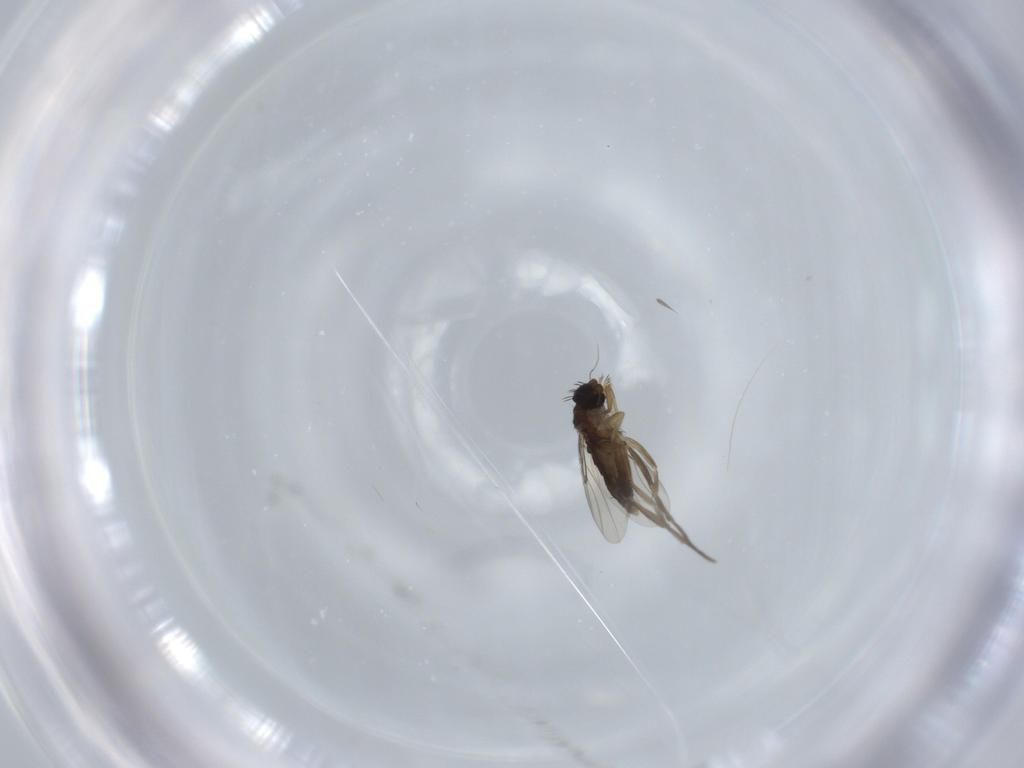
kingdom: Animalia
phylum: Arthropoda
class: Insecta
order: Diptera
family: Phoridae
